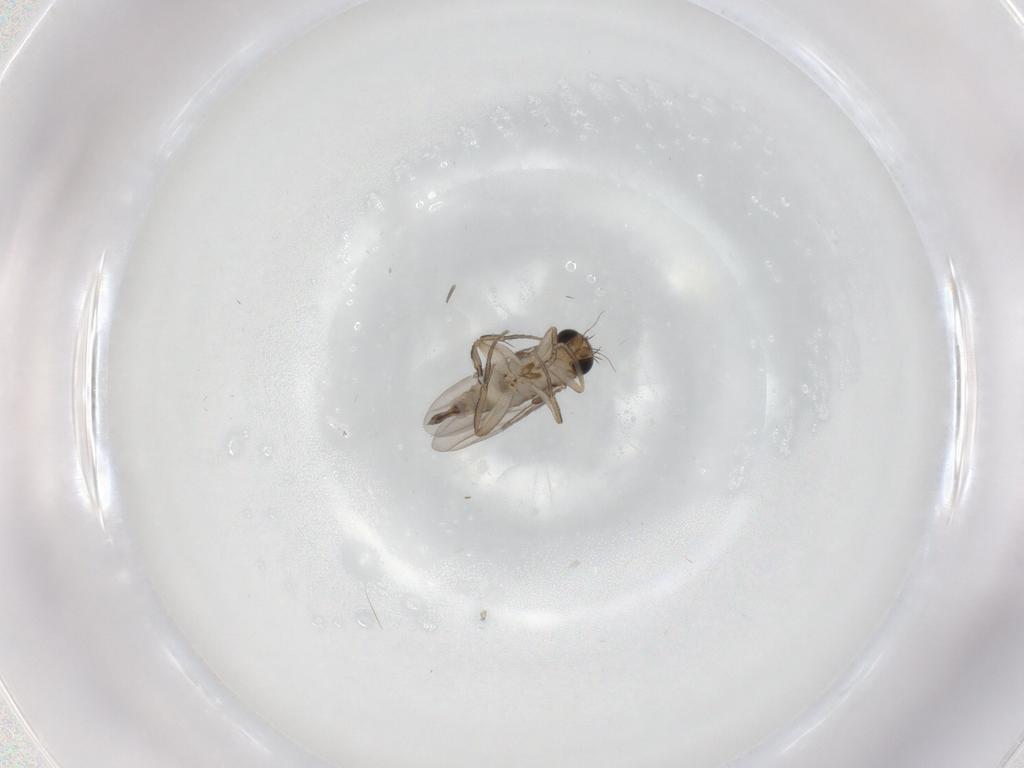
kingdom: Animalia
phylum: Arthropoda
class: Insecta
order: Diptera
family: Phoridae
